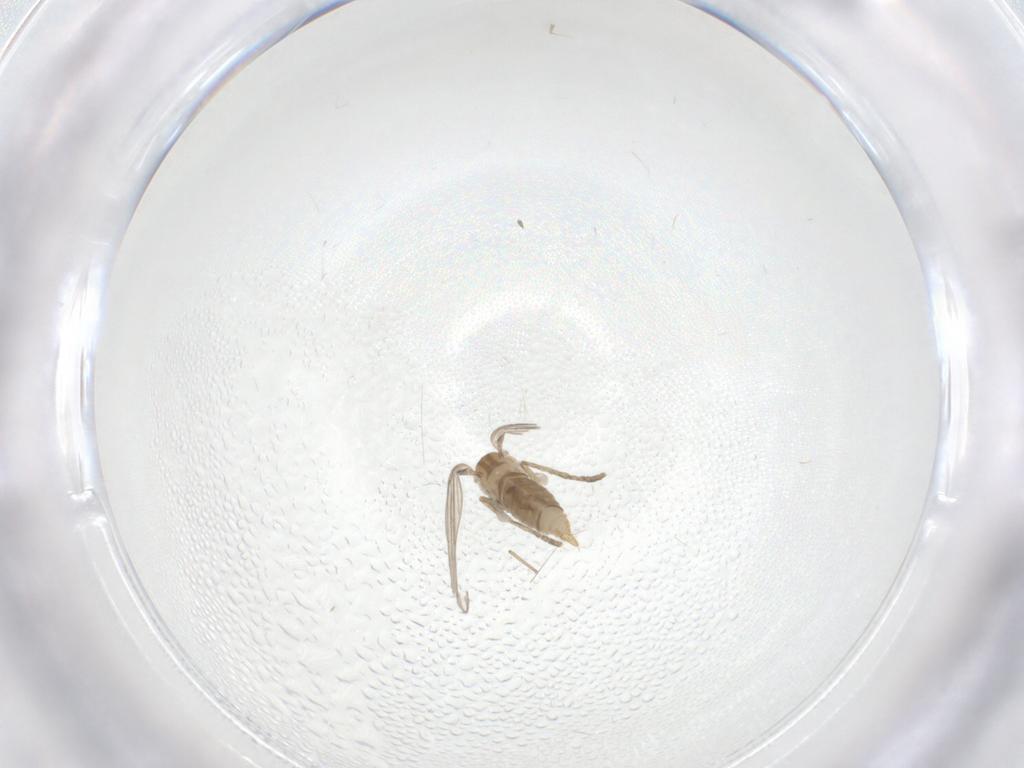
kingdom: Animalia
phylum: Arthropoda
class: Insecta
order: Diptera
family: Psychodidae
